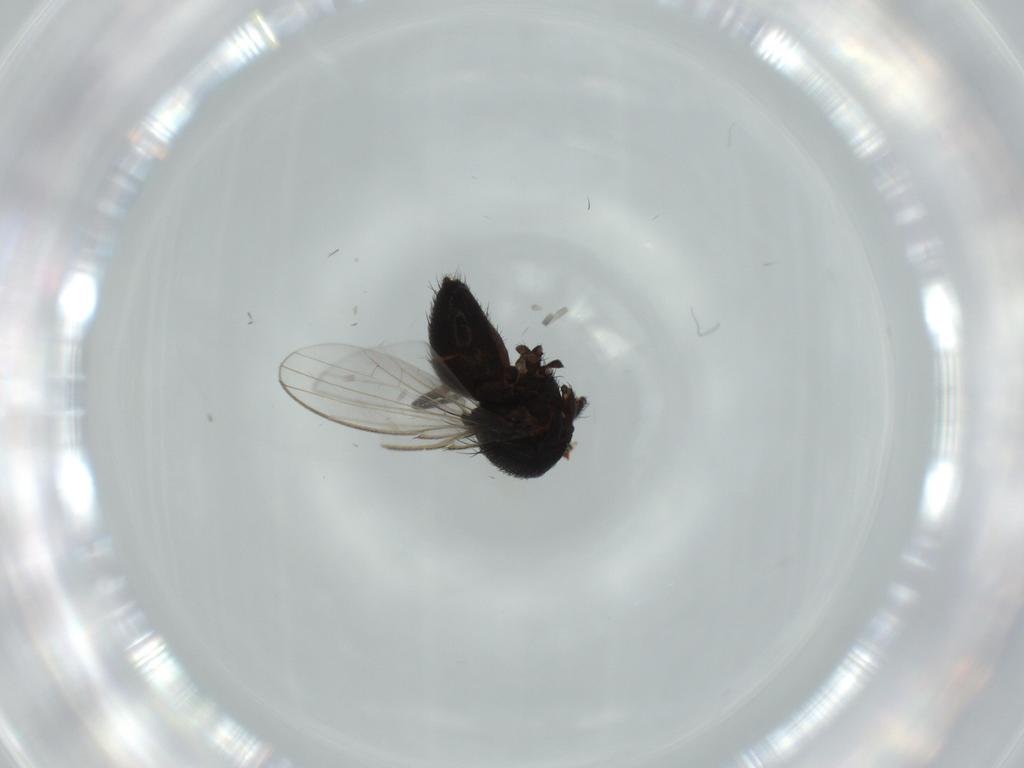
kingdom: Animalia
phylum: Arthropoda
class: Insecta
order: Diptera
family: Milichiidae
